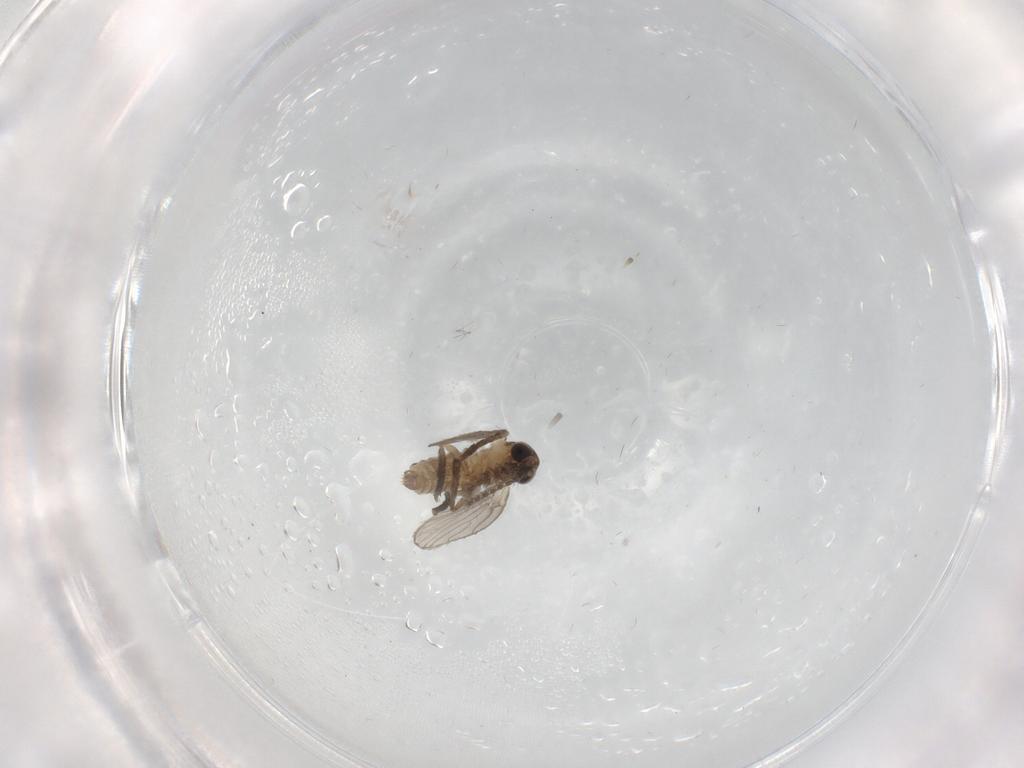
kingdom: Animalia
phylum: Arthropoda
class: Insecta
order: Diptera
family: Psychodidae
